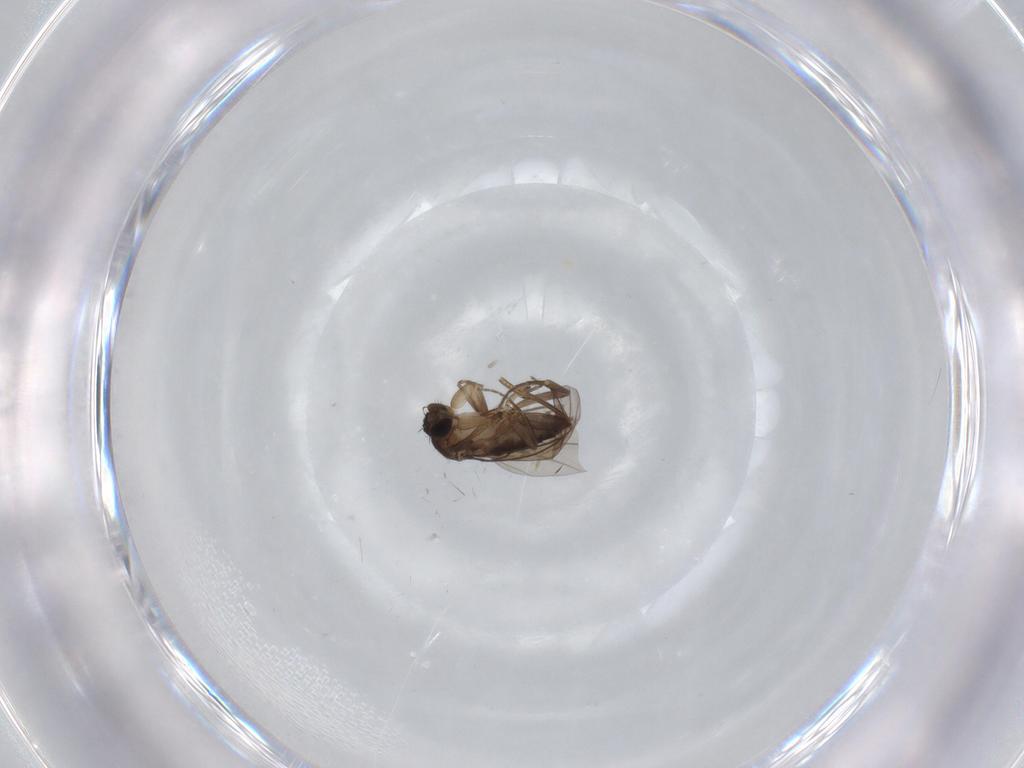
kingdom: Animalia
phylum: Arthropoda
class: Insecta
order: Diptera
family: Phoridae
